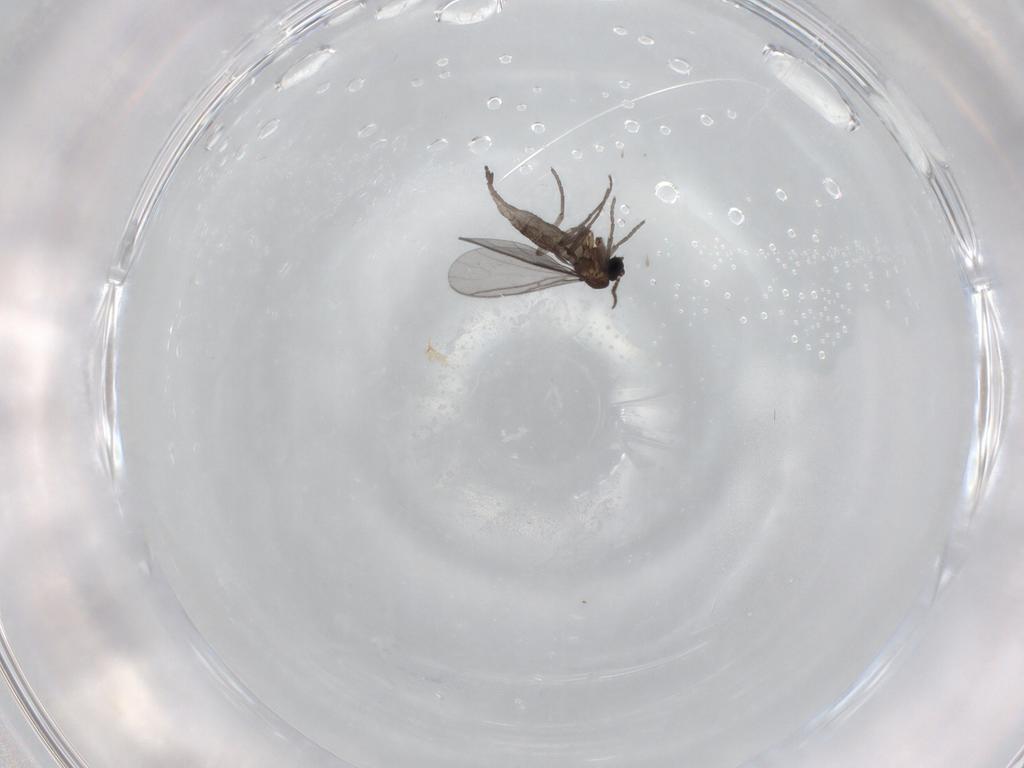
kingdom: Animalia
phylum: Arthropoda
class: Insecta
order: Diptera
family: Sciaridae
